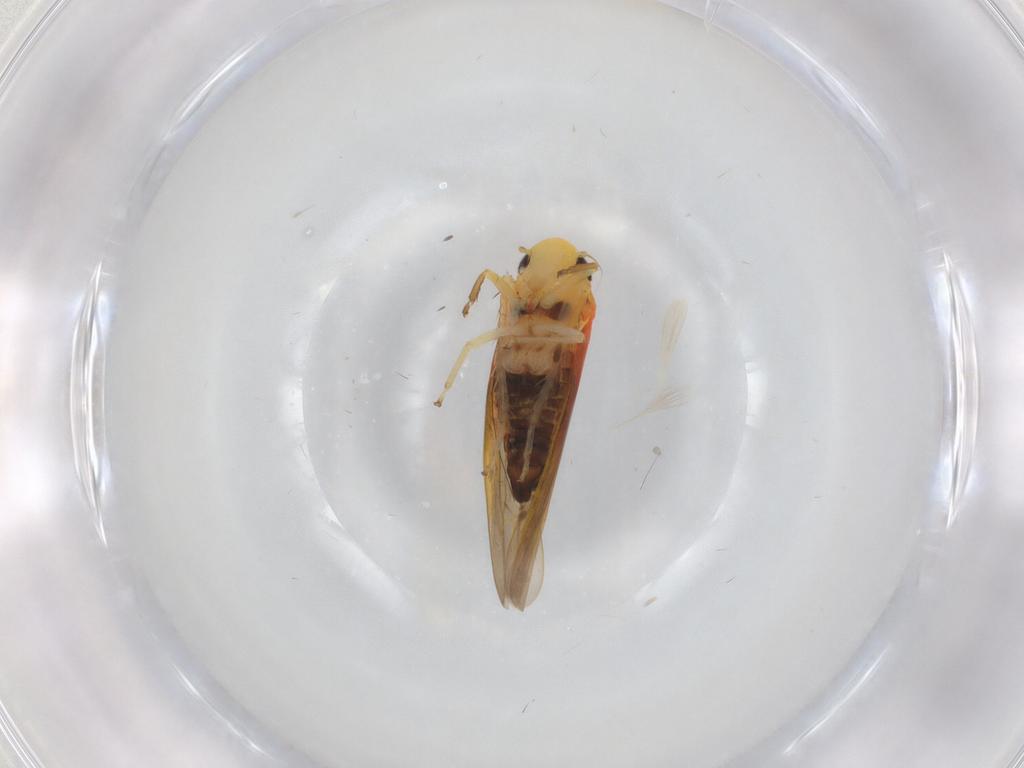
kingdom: Animalia
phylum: Arthropoda
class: Insecta
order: Hemiptera
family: Cicadellidae
